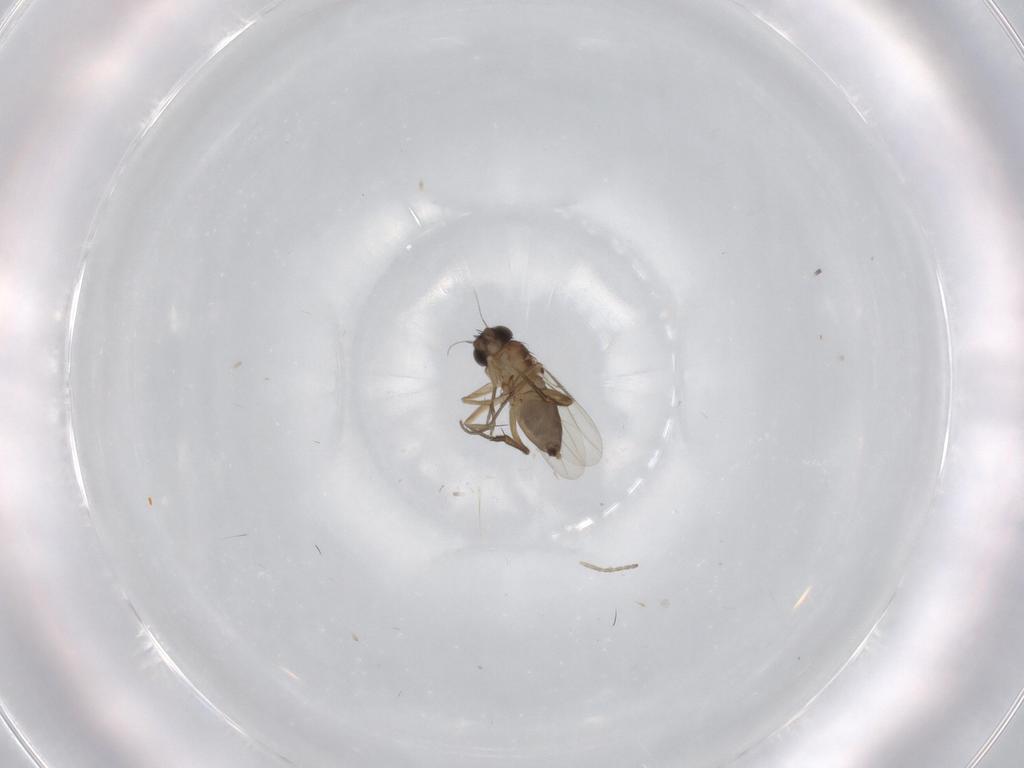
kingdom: Animalia
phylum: Arthropoda
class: Insecta
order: Diptera
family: Phoridae
